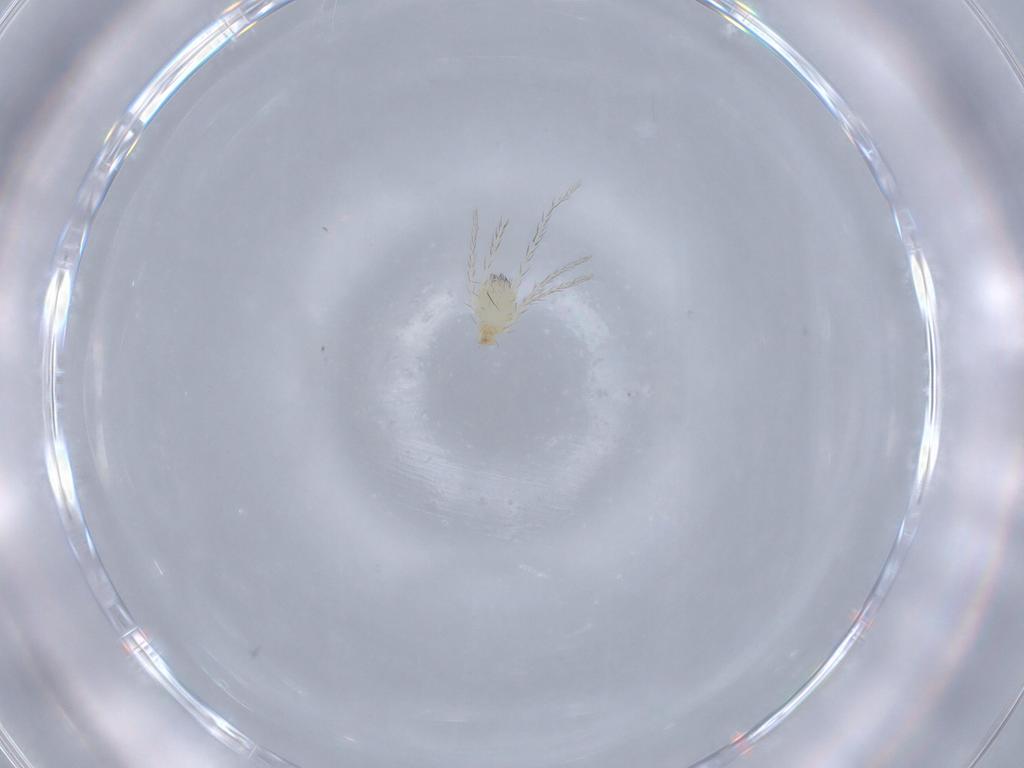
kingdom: Animalia
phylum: Arthropoda
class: Arachnida
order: Trombidiformes
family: Erythraeidae
